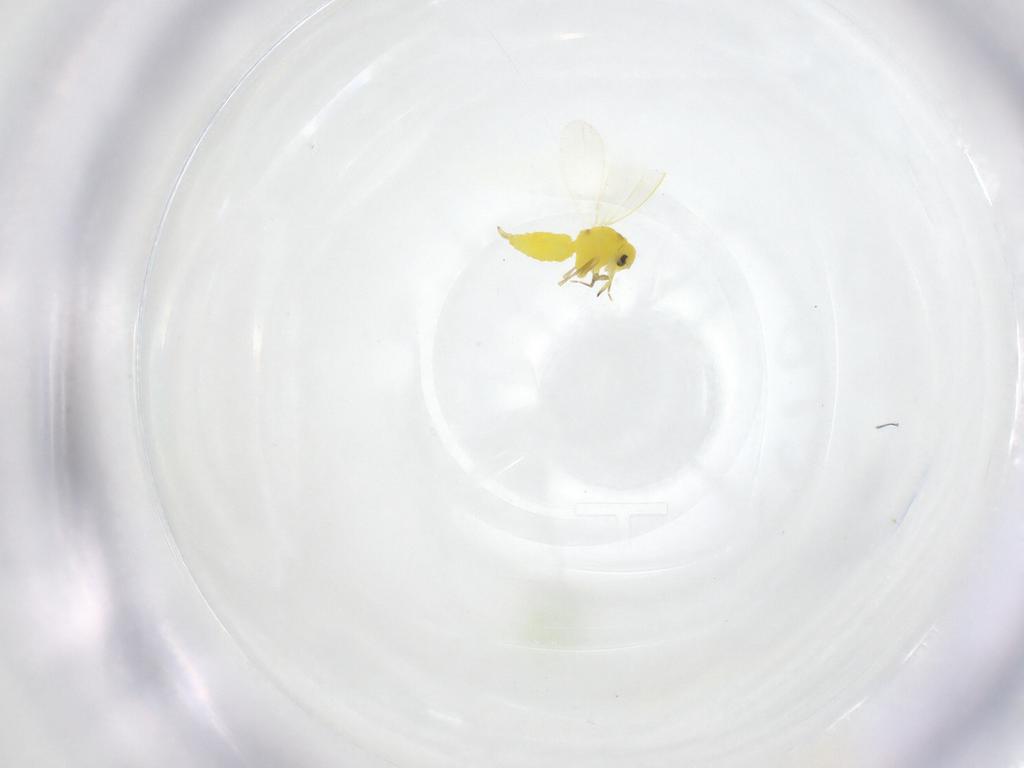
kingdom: Animalia
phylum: Arthropoda
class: Insecta
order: Hemiptera
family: Aleyrodidae
